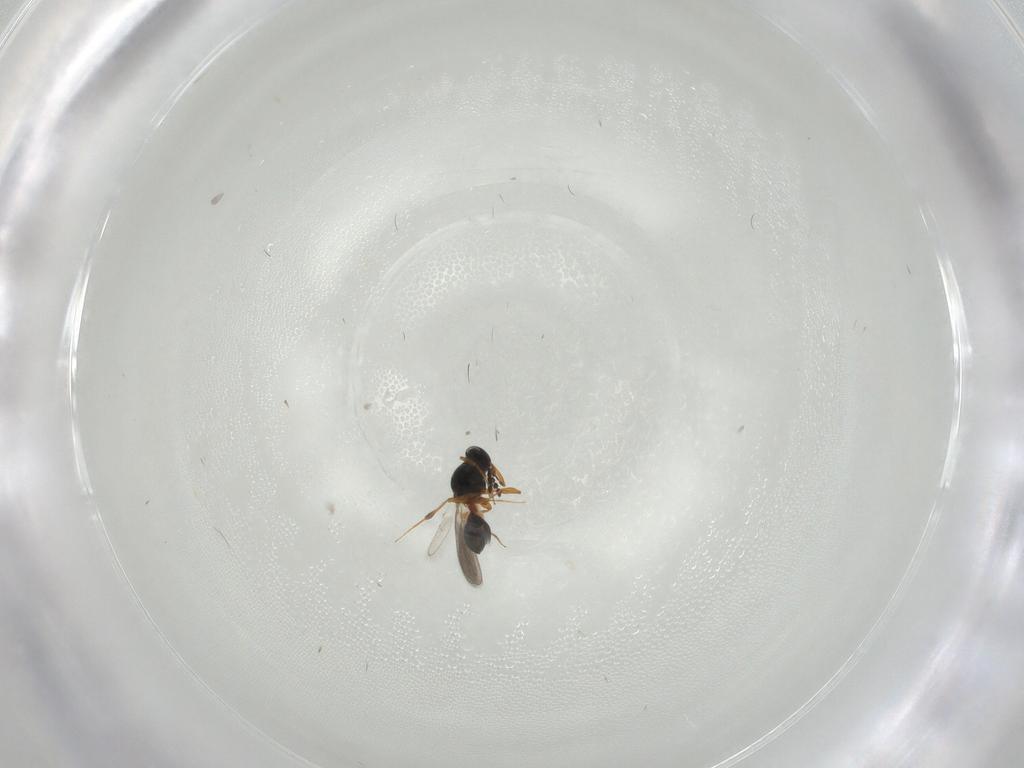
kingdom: Animalia
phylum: Arthropoda
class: Insecta
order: Hymenoptera
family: Platygastridae
